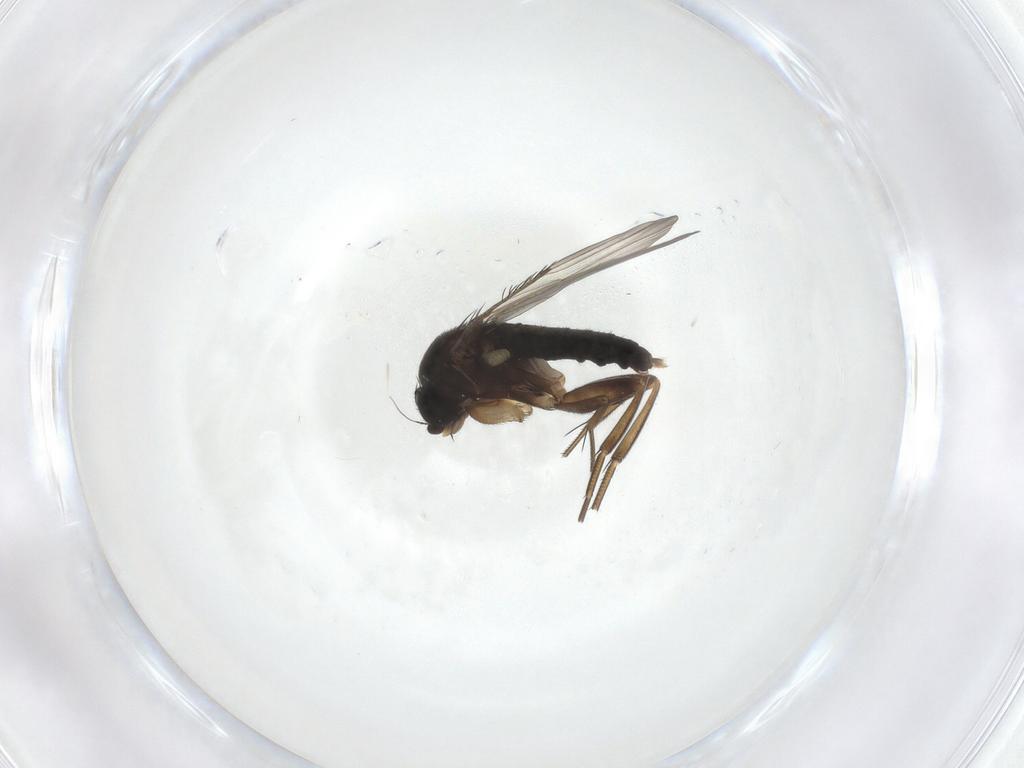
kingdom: Animalia
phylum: Arthropoda
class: Insecta
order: Diptera
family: Phoridae
